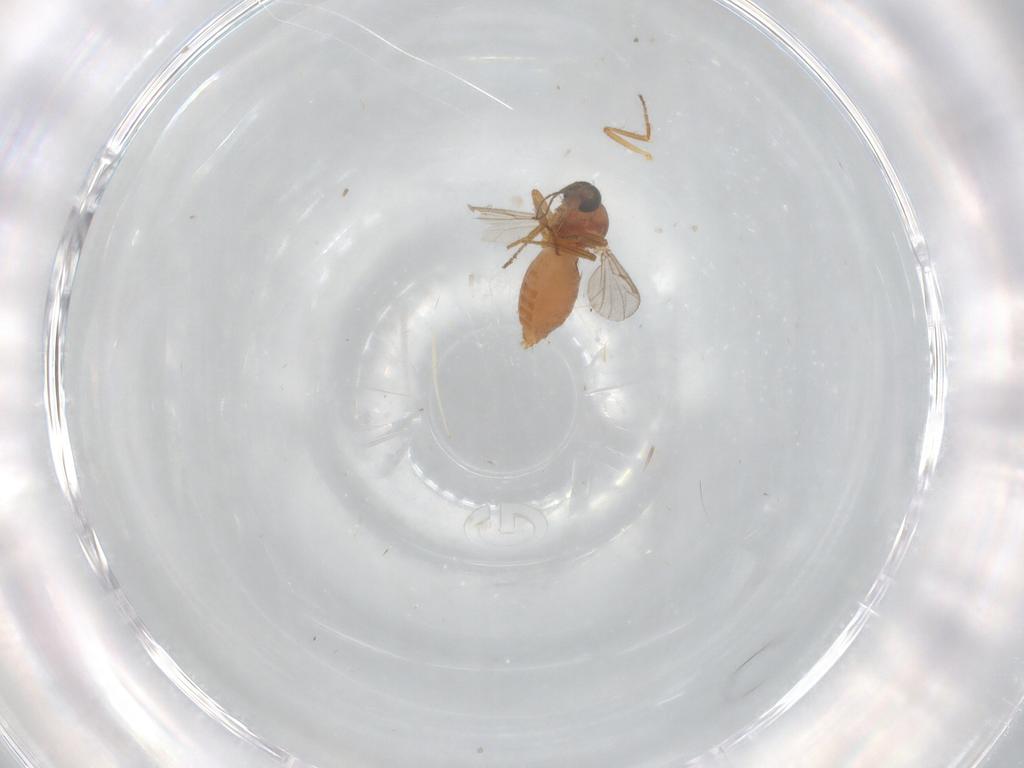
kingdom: Animalia
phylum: Arthropoda
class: Insecta
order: Diptera
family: Ceratopogonidae
